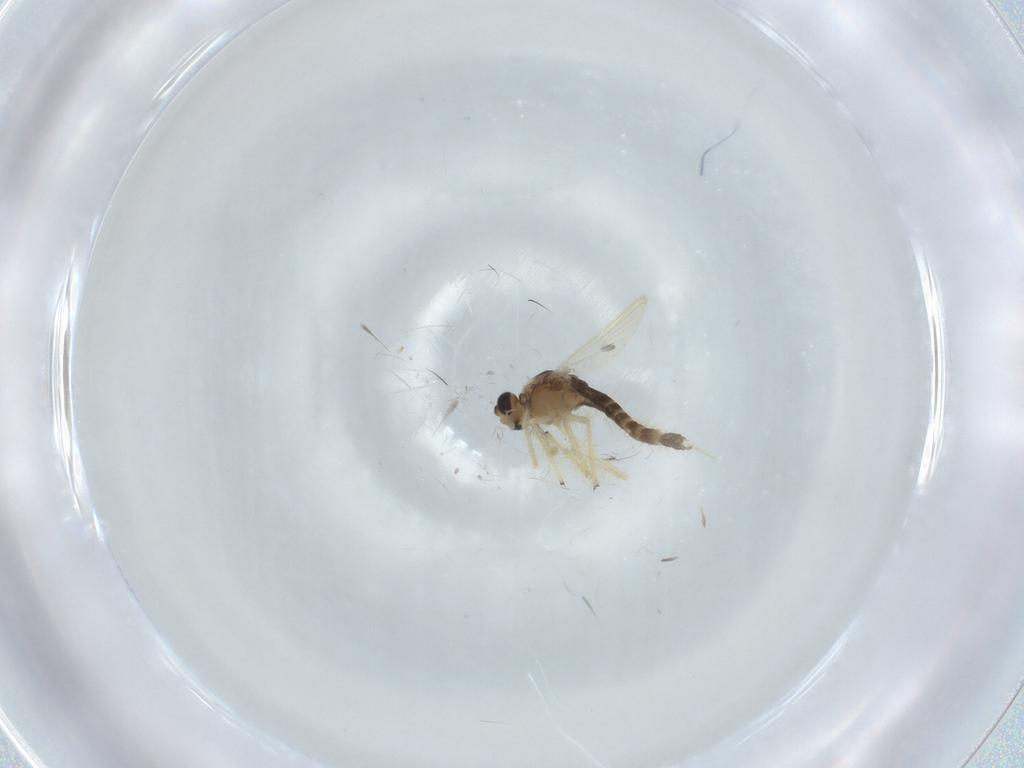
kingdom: Animalia
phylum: Arthropoda
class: Insecta
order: Diptera
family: Chironomidae
